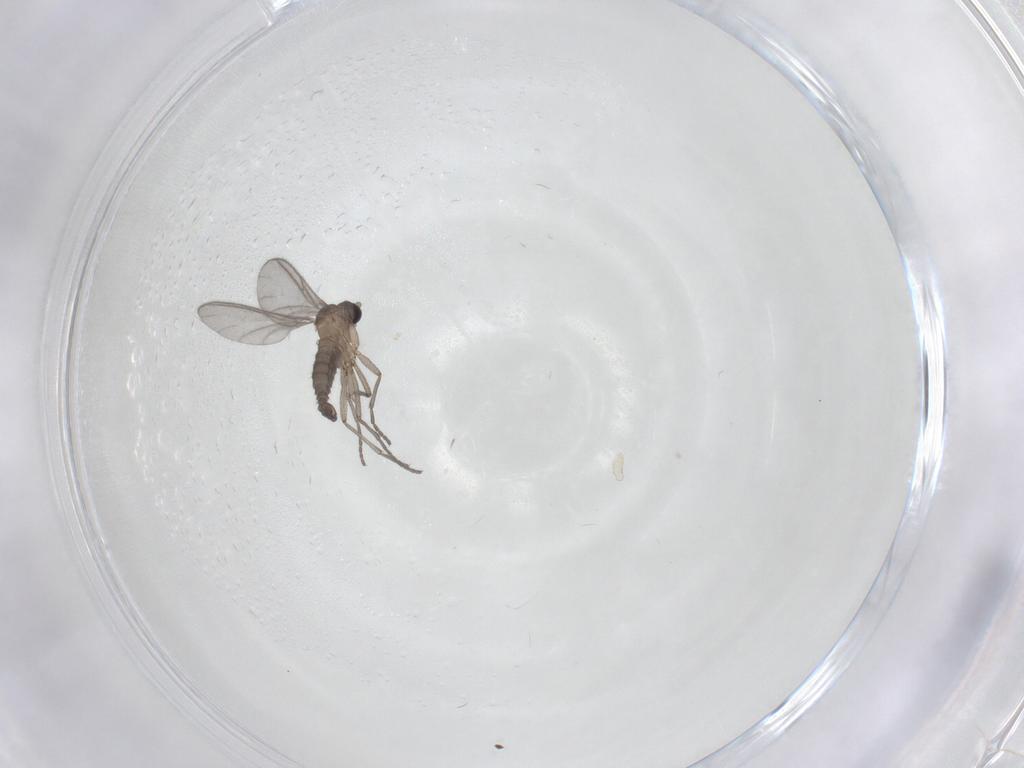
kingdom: Animalia
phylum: Arthropoda
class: Insecta
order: Diptera
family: Sciaridae
